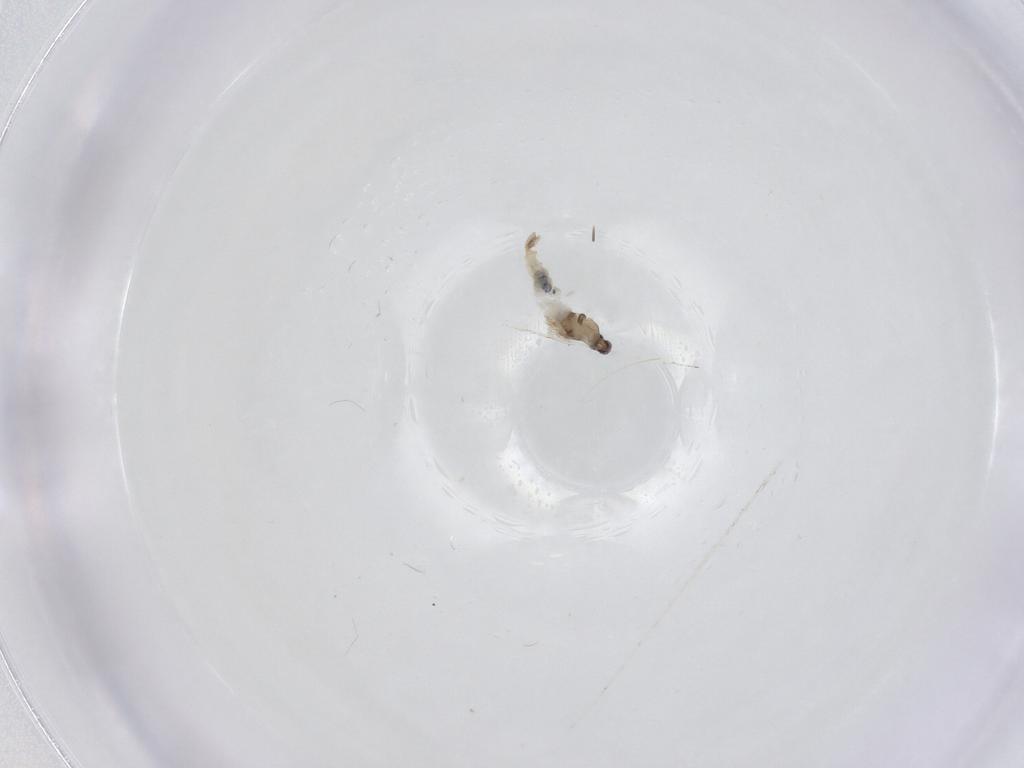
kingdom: Animalia
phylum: Arthropoda
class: Insecta
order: Diptera
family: Cecidomyiidae
